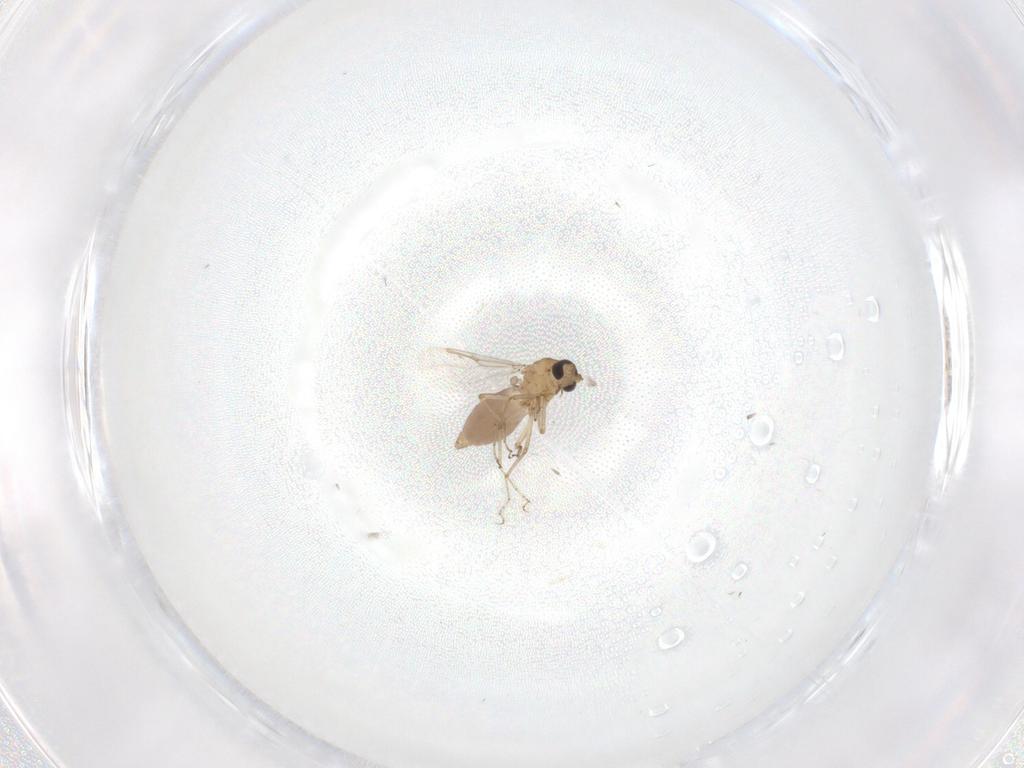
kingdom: Animalia
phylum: Arthropoda
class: Insecta
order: Diptera
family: Ceratopogonidae
